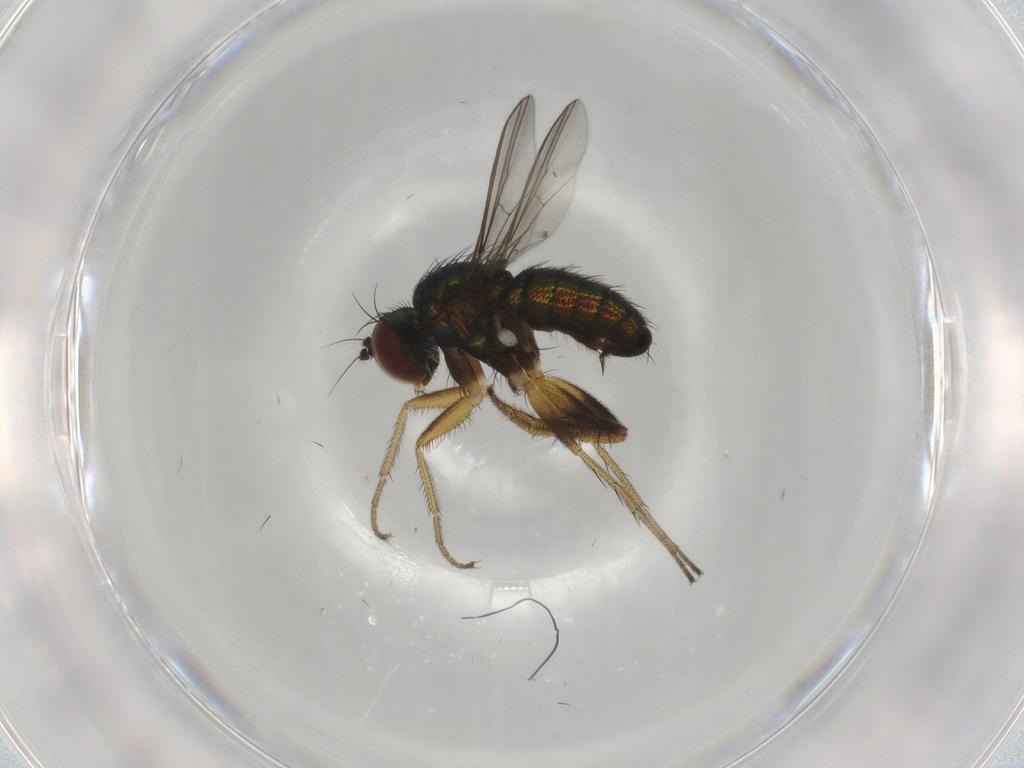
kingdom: Animalia
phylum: Arthropoda
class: Insecta
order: Diptera
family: Dolichopodidae
